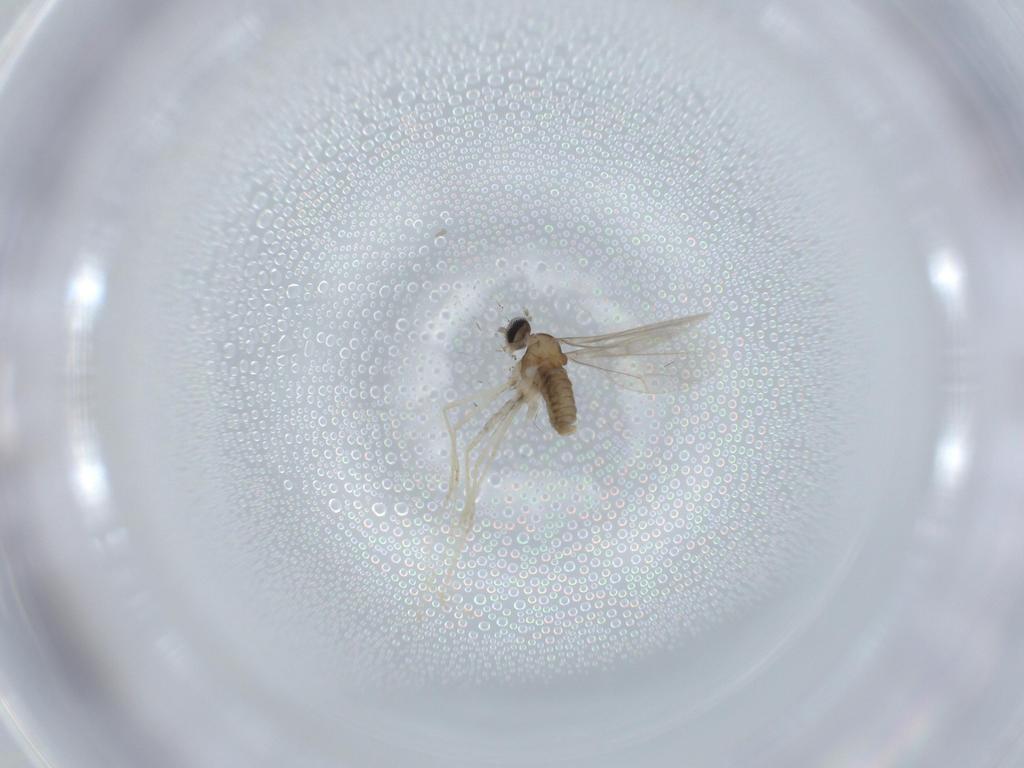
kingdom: Animalia
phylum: Arthropoda
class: Insecta
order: Diptera
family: Cecidomyiidae
